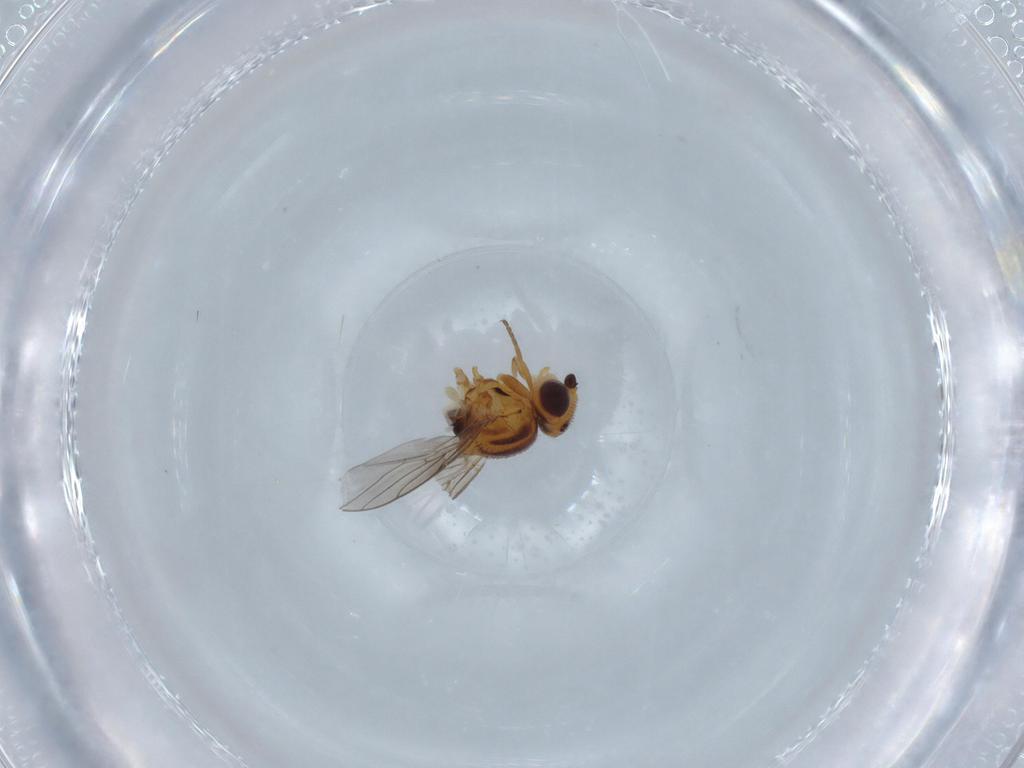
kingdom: Animalia
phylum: Arthropoda
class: Insecta
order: Diptera
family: Chloropidae
